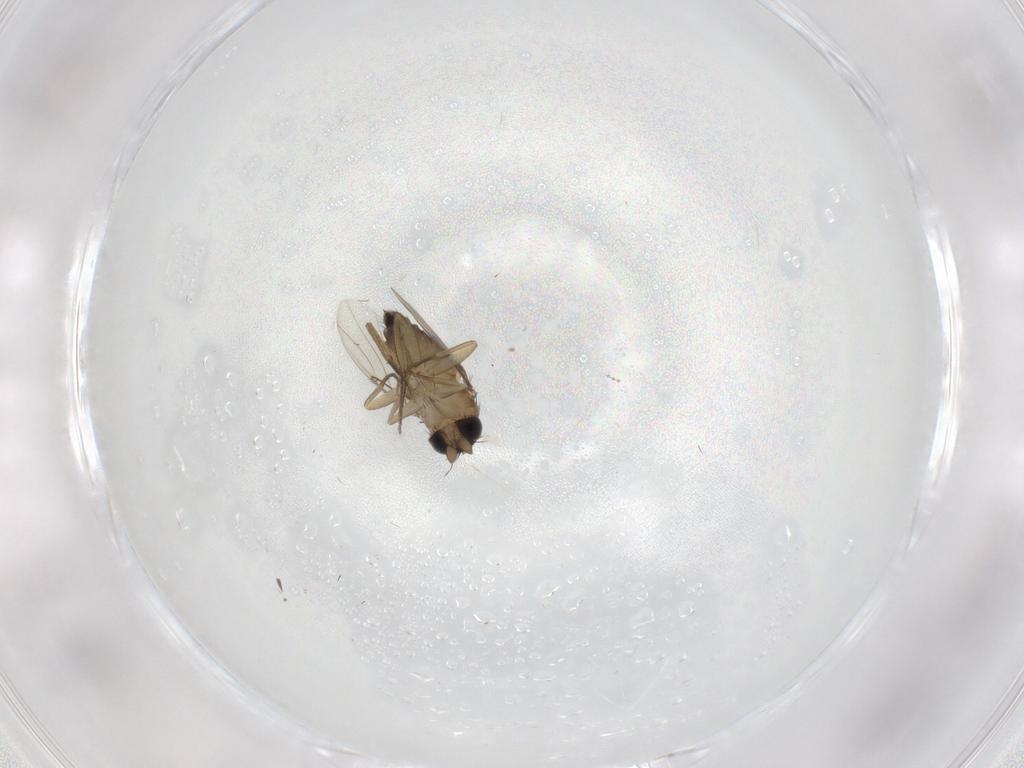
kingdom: Animalia
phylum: Arthropoda
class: Insecta
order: Diptera
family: Phoridae
